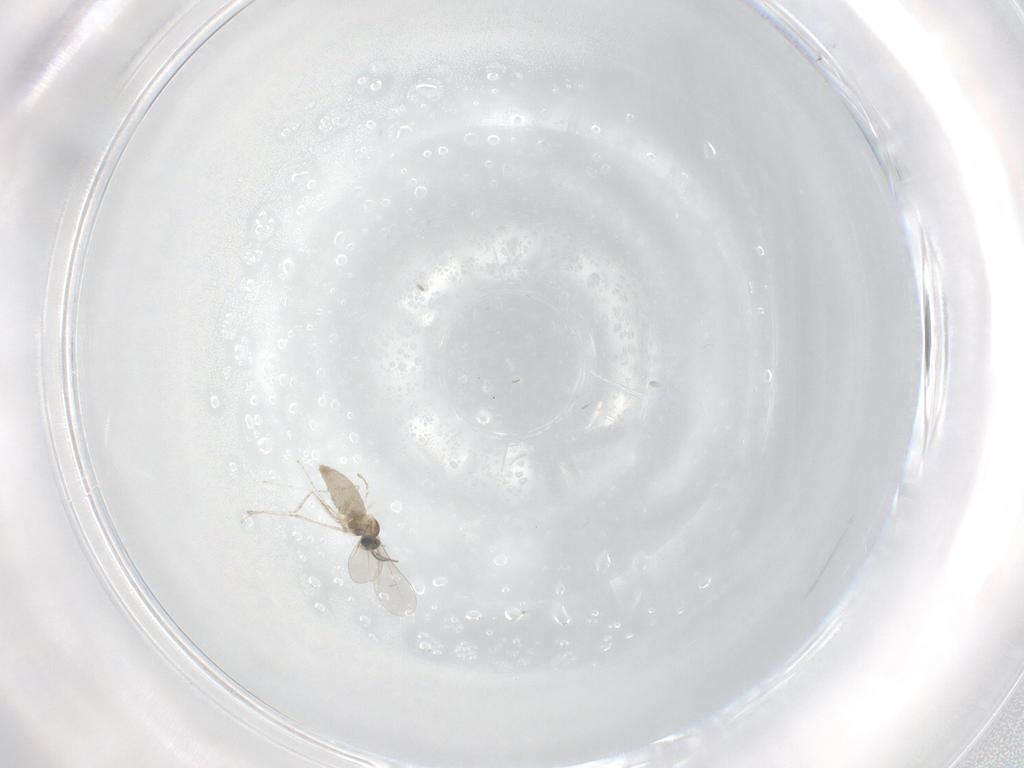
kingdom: Animalia
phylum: Arthropoda
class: Insecta
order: Diptera
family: Cecidomyiidae
